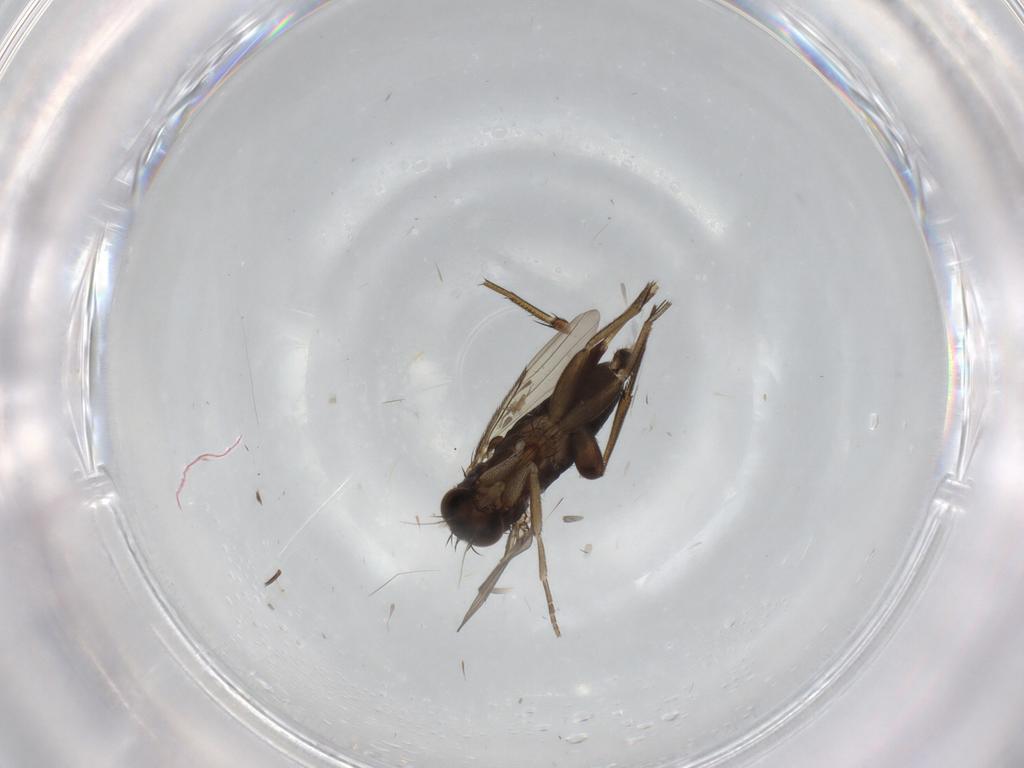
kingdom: Animalia
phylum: Arthropoda
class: Insecta
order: Diptera
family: Phoridae
